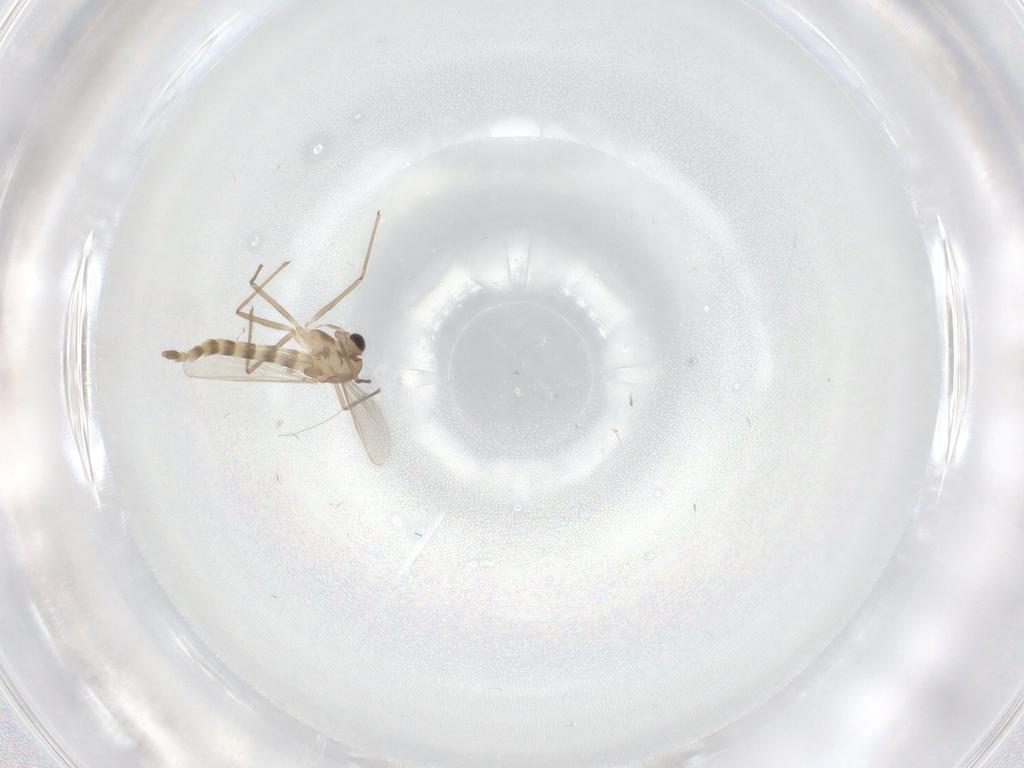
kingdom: Animalia
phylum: Arthropoda
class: Insecta
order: Diptera
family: Chironomidae
